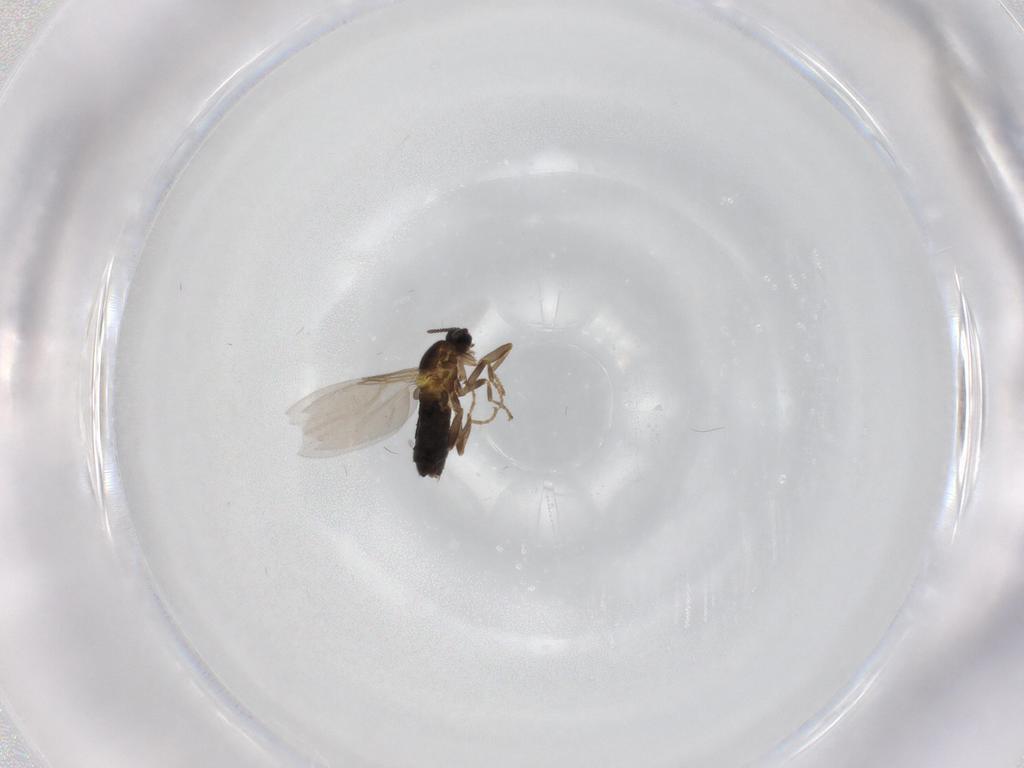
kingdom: Animalia
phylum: Arthropoda
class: Insecta
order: Diptera
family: Scatopsidae
